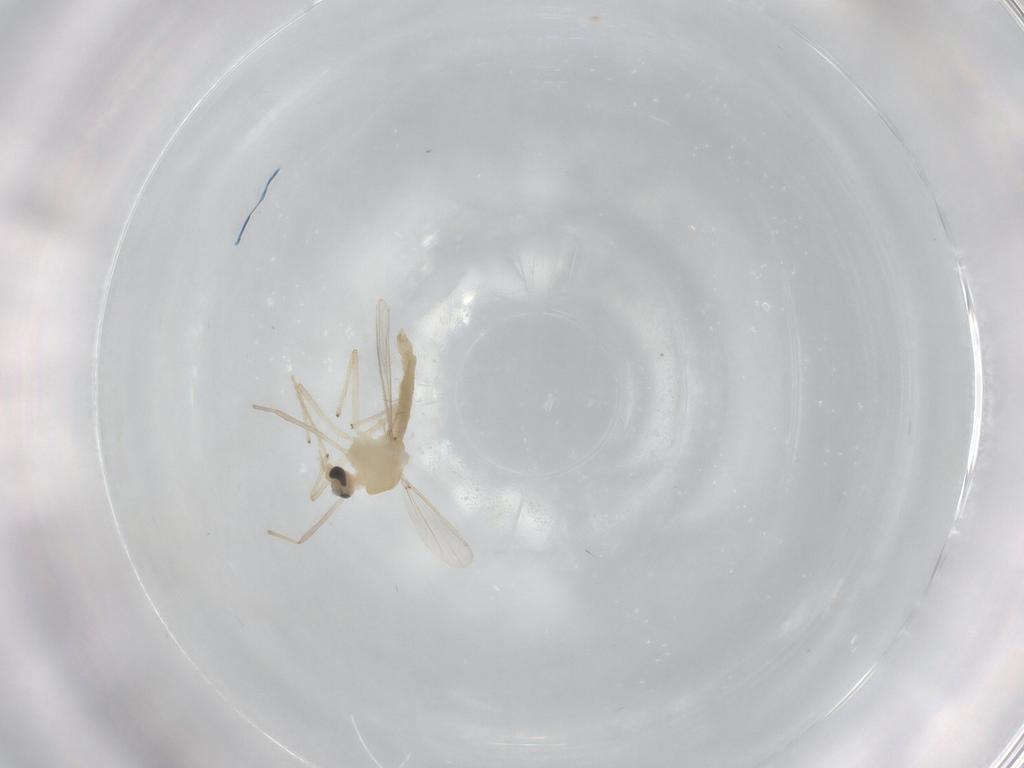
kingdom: Animalia
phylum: Arthropoda
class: Insecta
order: Diptera
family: Chironomidae
